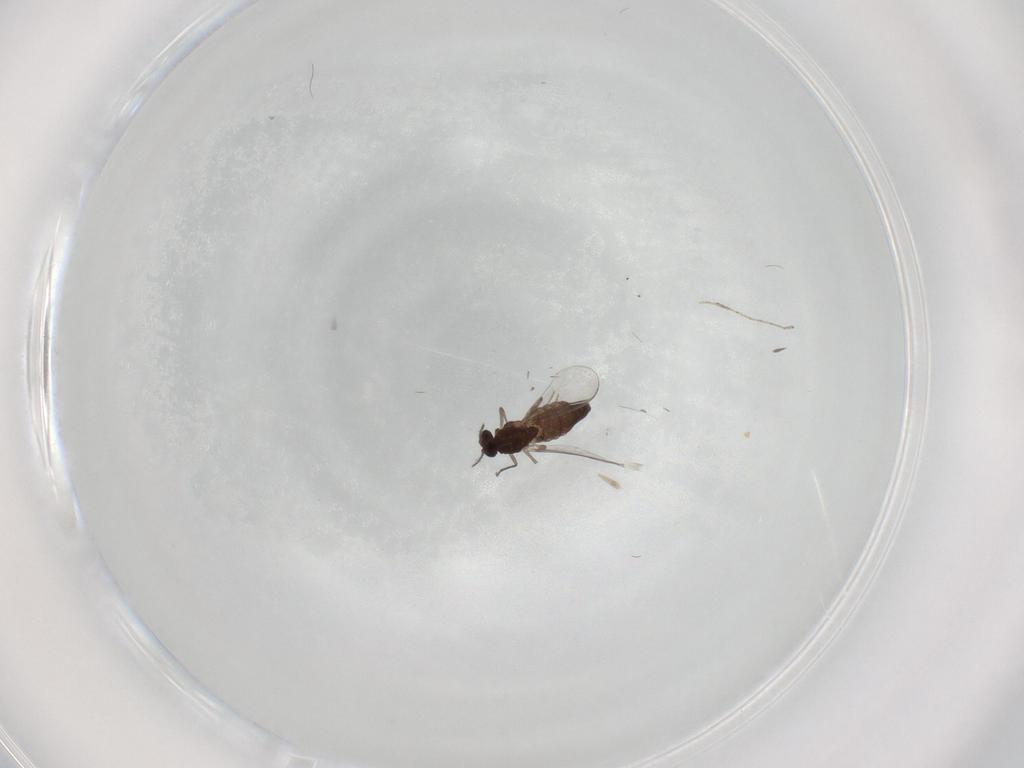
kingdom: Animalia
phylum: Arthropoda
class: Insecta
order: Diptera
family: Chironomidae
